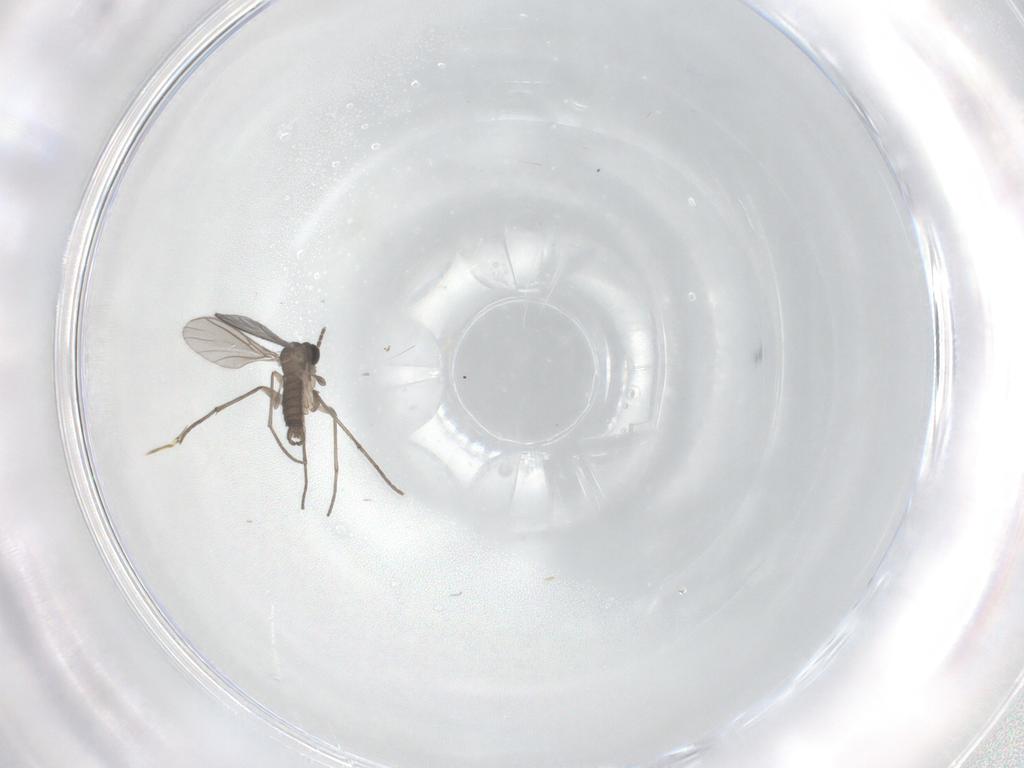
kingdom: Animalia
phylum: Arthropoda
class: Insecta
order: Diptera
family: Sciaridae
